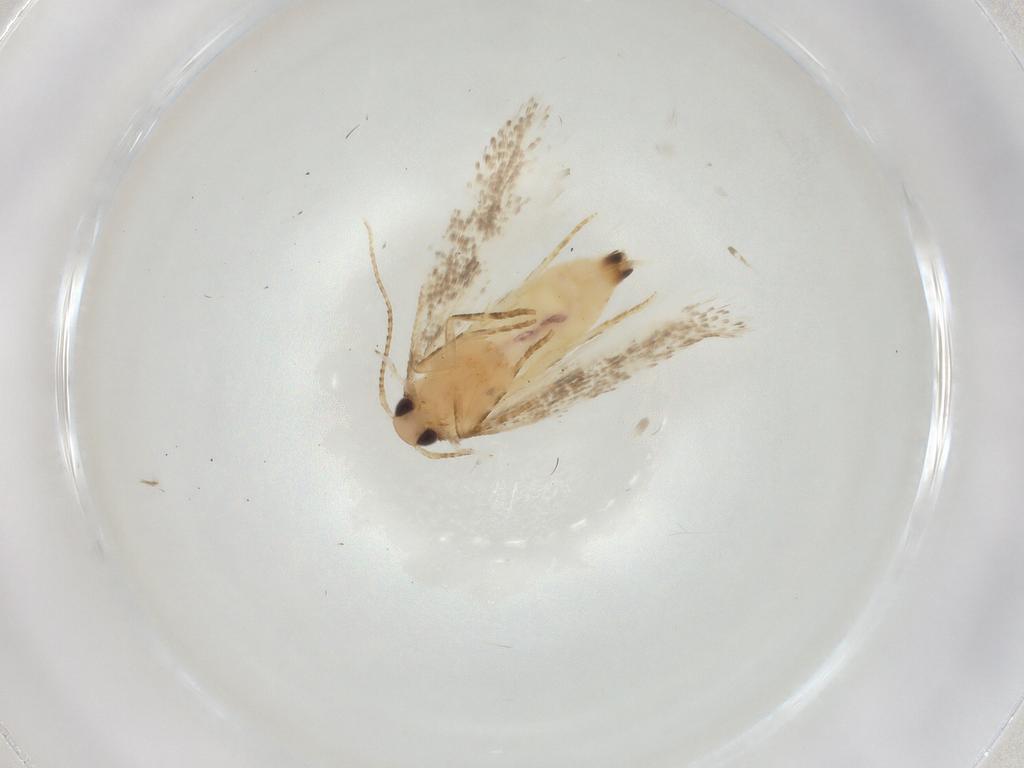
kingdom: Animalia
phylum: Arthropoda
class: Insecta
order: Lepidoptera
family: Gelechiidae
